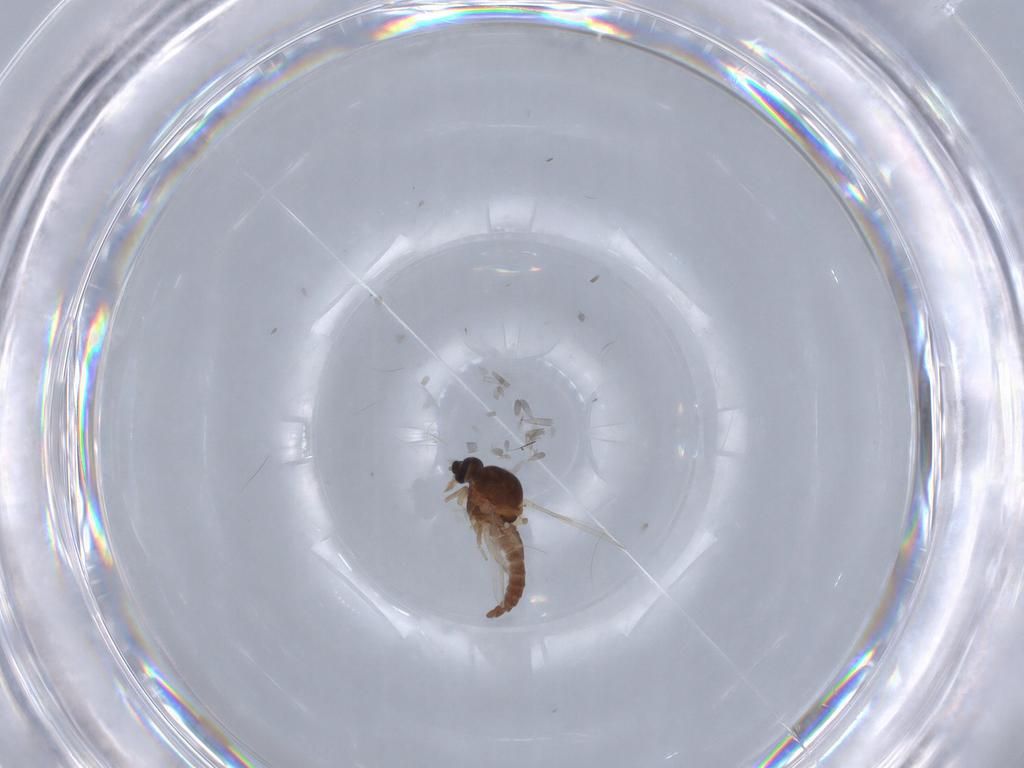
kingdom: Animalia
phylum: Arthropoda
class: Insecta
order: Diptera
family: Ceratopogonidae
